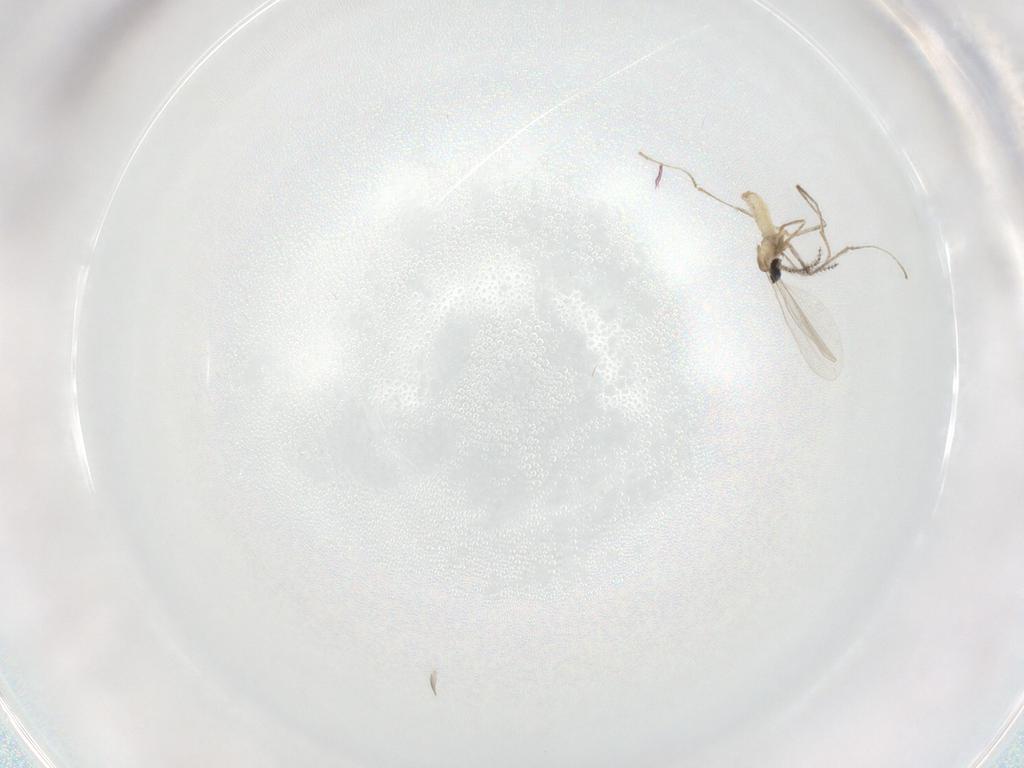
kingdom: Animalia
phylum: Arthropoda
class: Insecta
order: Diptera
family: Cecidomyiidae
